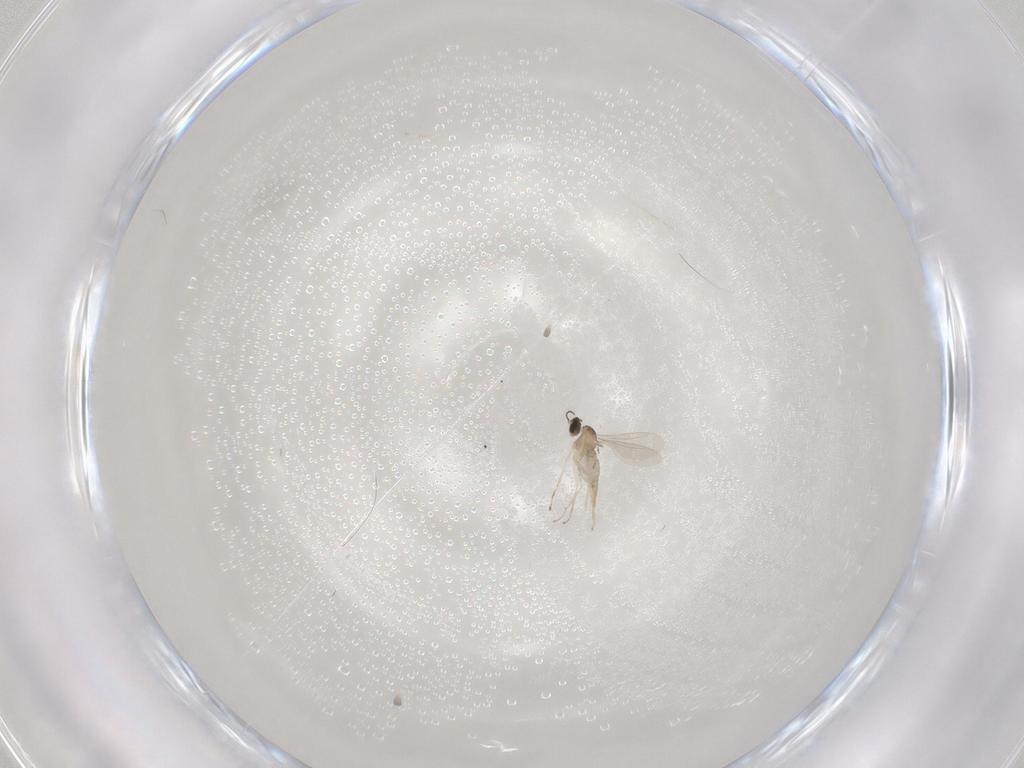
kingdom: Animalia
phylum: Arthropoda
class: Insecta
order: Diptera
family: Cecidomyiidae
